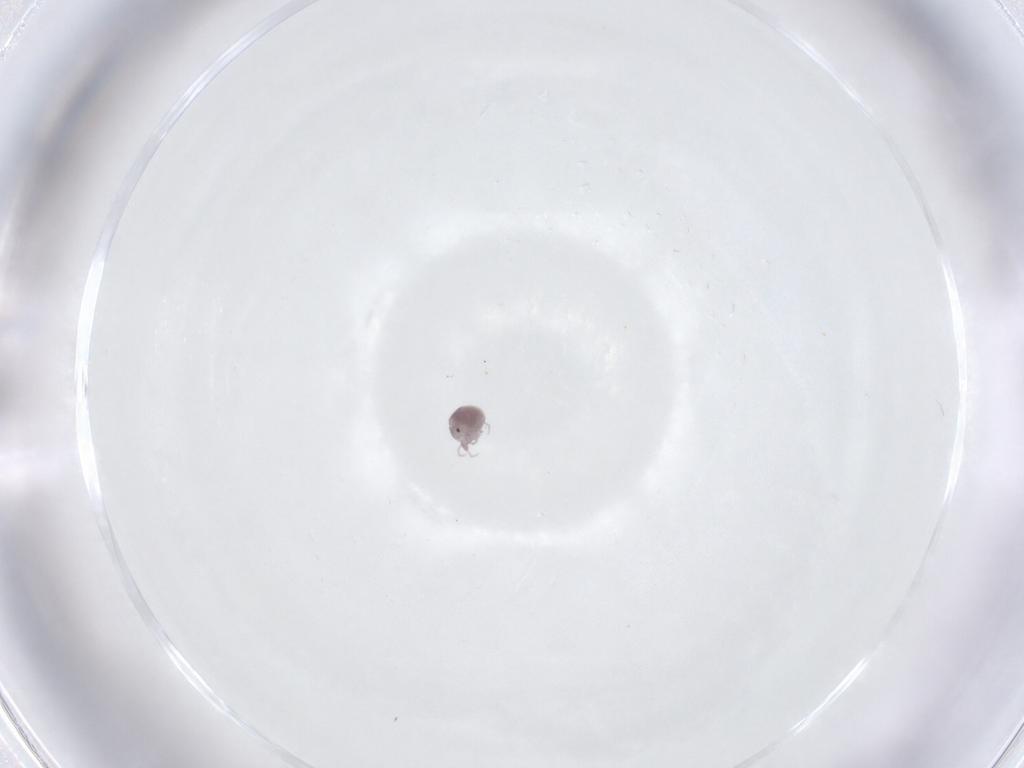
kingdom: Animalia
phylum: Arthropoda
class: Arachnida
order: Trombidiformes
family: Pionidae
